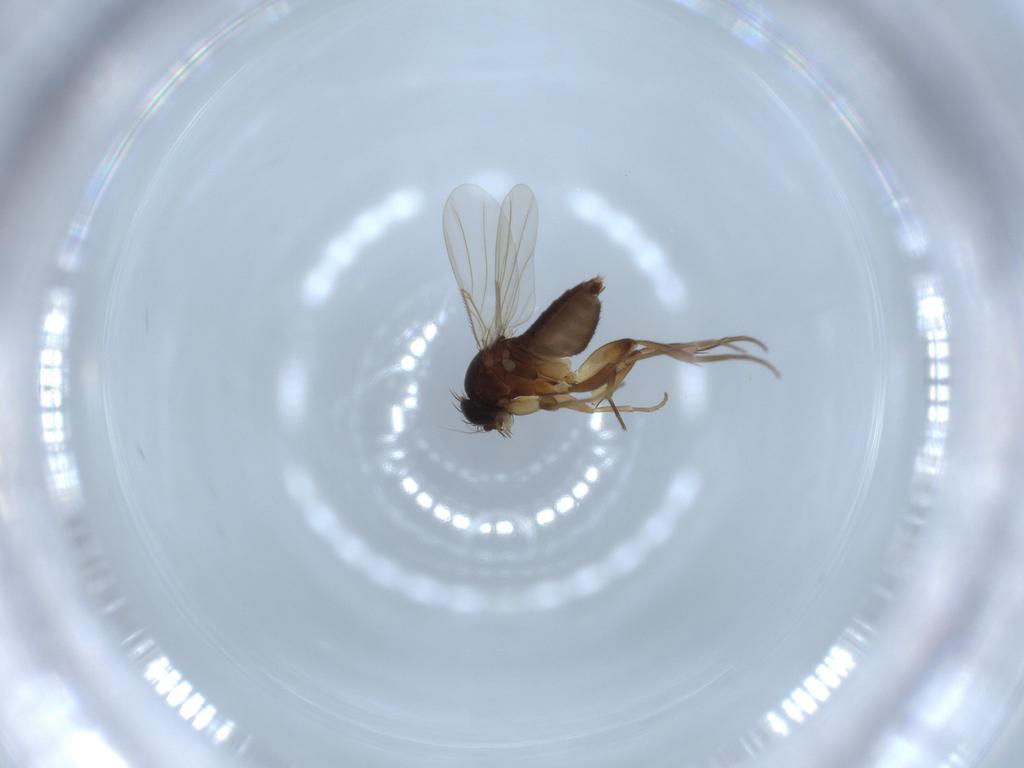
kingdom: Animalia
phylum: Arthropoda
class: Insecta
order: Diptera
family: Phoridae
